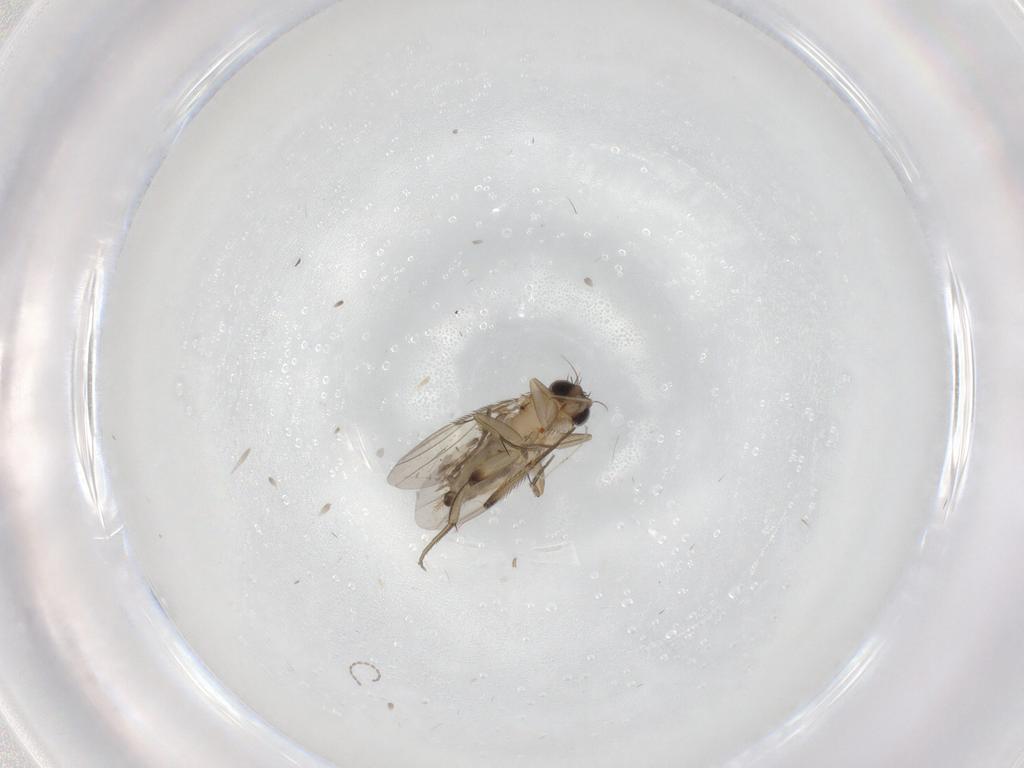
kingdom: Animalia
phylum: Arthropoda
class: Insecta
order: Diptera
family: Phoridae
